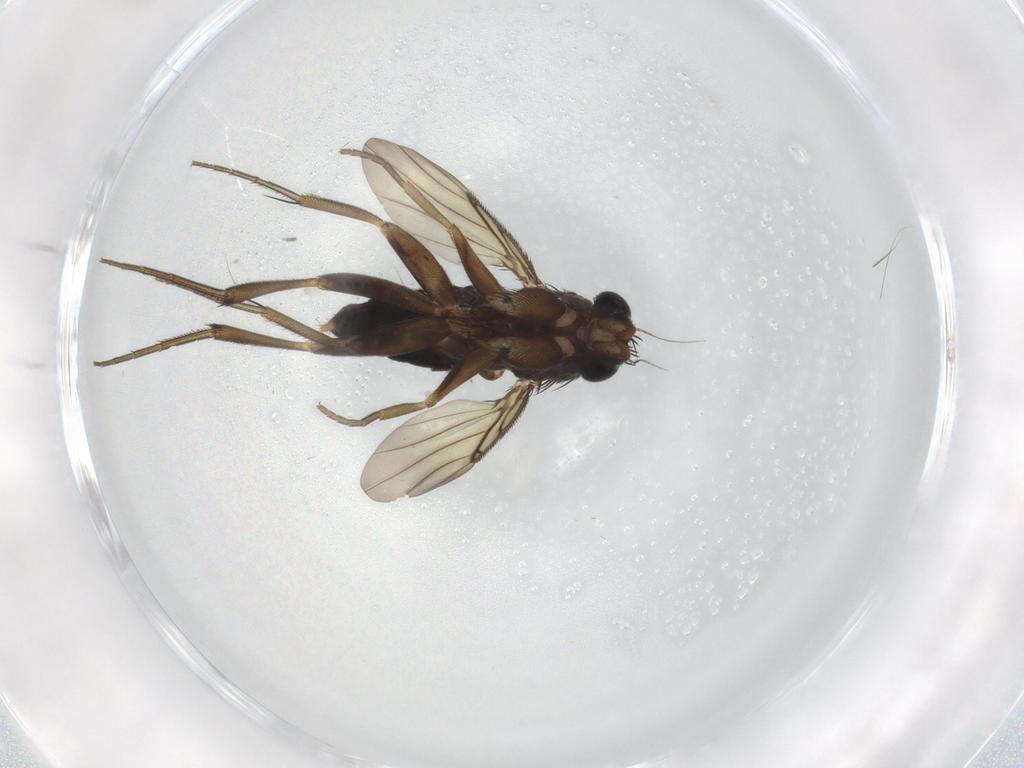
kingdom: Animalia
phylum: Arthropoda
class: Insecta
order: Diptera
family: Phoridae
